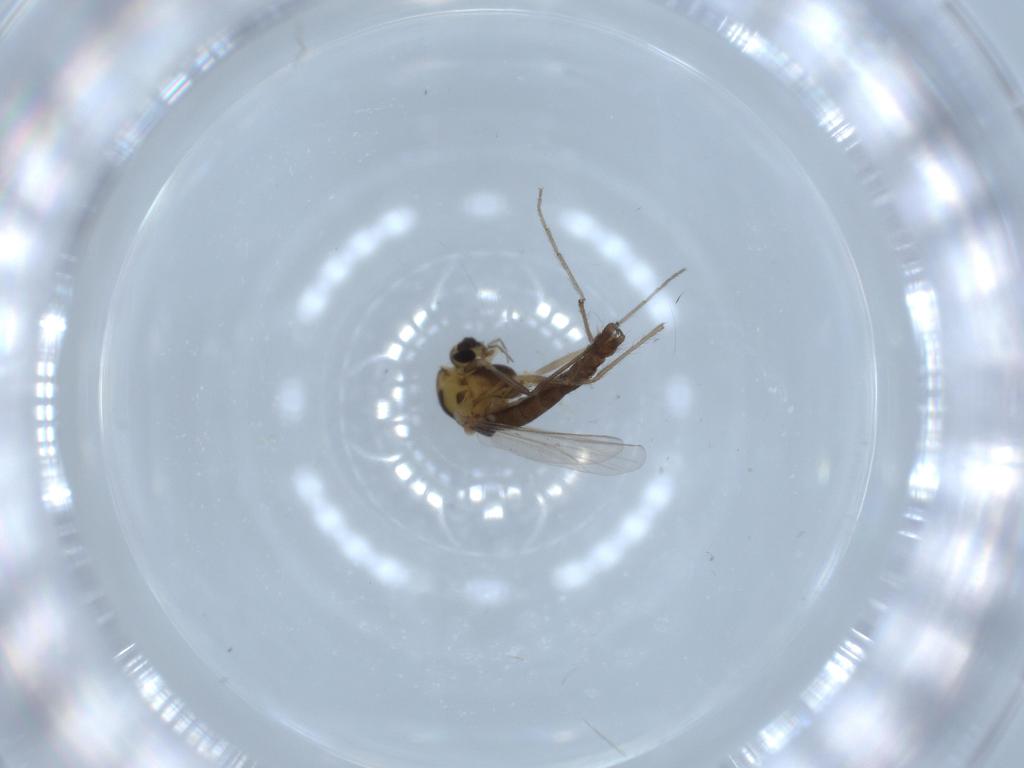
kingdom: Animalia
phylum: Arthropoda
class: Insecta
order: Diptera
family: Chironomidae
